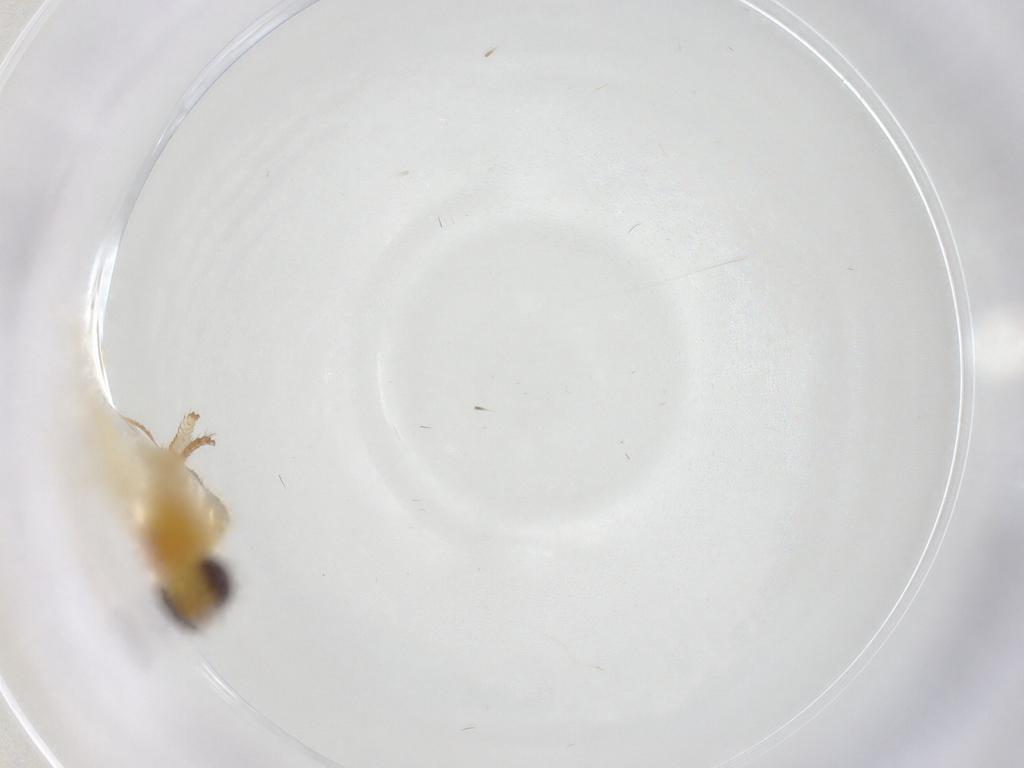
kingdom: Animalia
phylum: Arthropoda
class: Insecta
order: Diptera
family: Periscelididae
